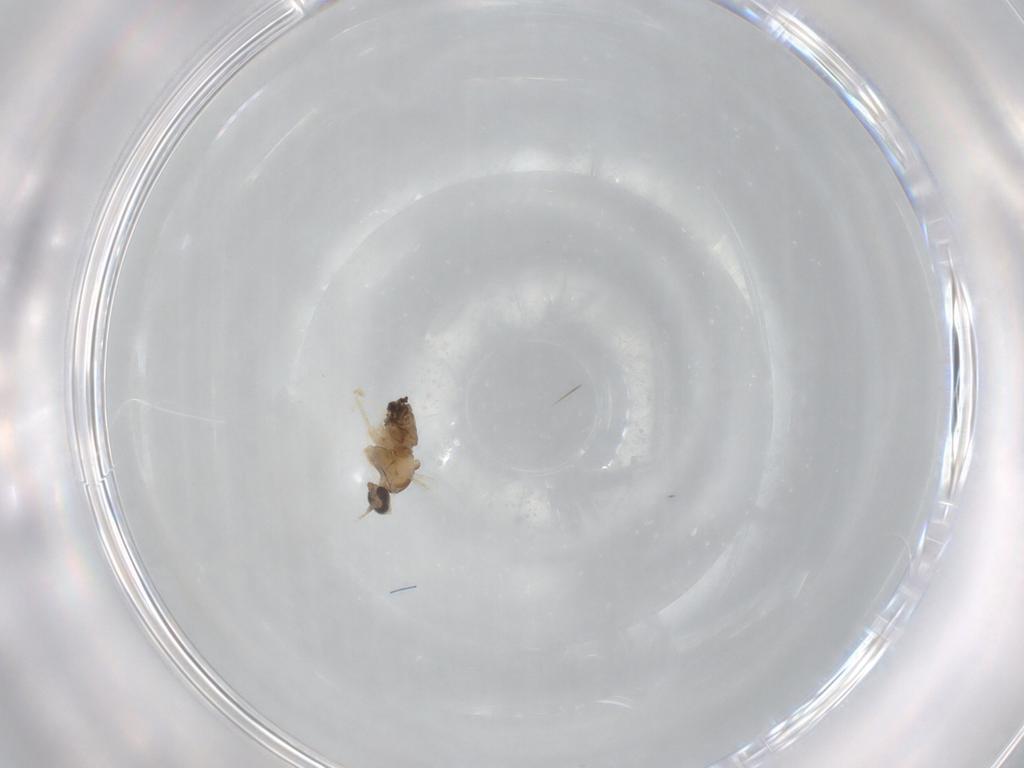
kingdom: Animalia
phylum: Arthropoda
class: Insecta
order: Diptera
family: Cecidomyiidae
